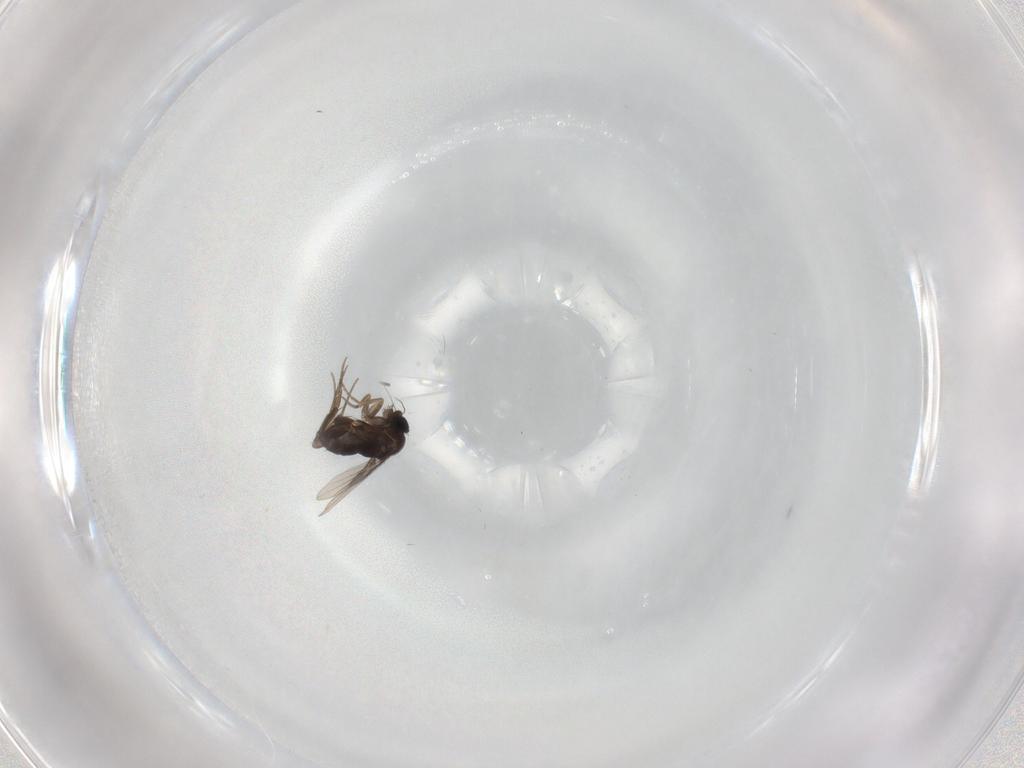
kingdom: Animalia
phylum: Arthropoda
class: Insecta
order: Diptera
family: Phoridae
